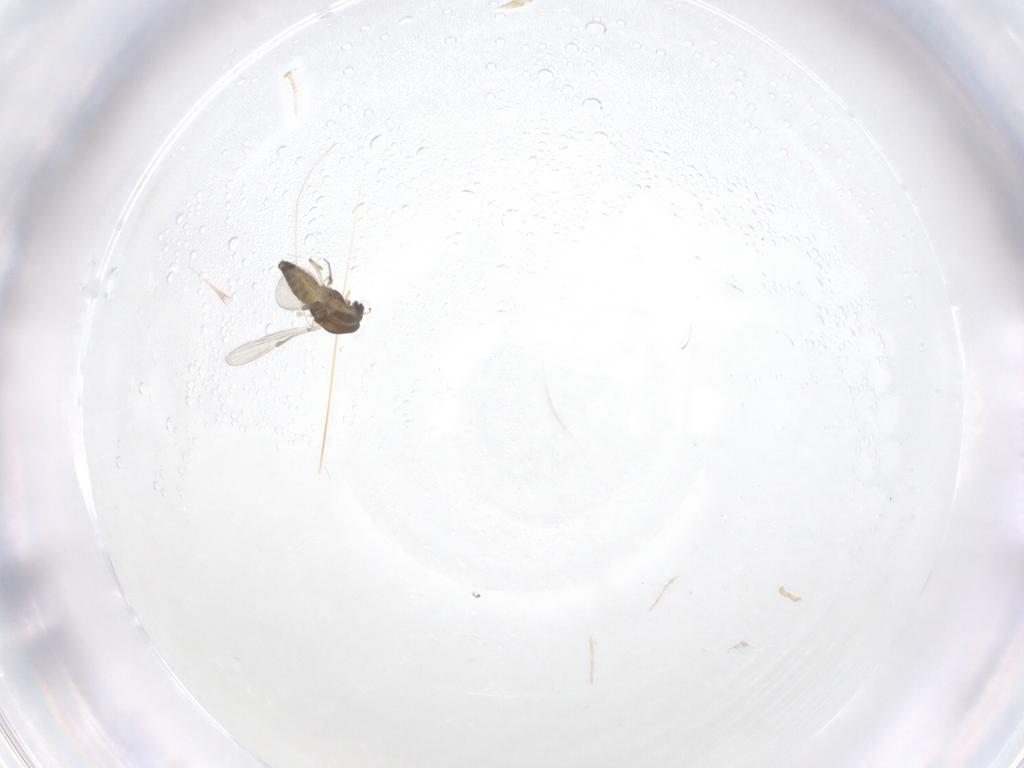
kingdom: Animalia
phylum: Arthropoda
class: Insecta
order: Diptera
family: Chironomidae
